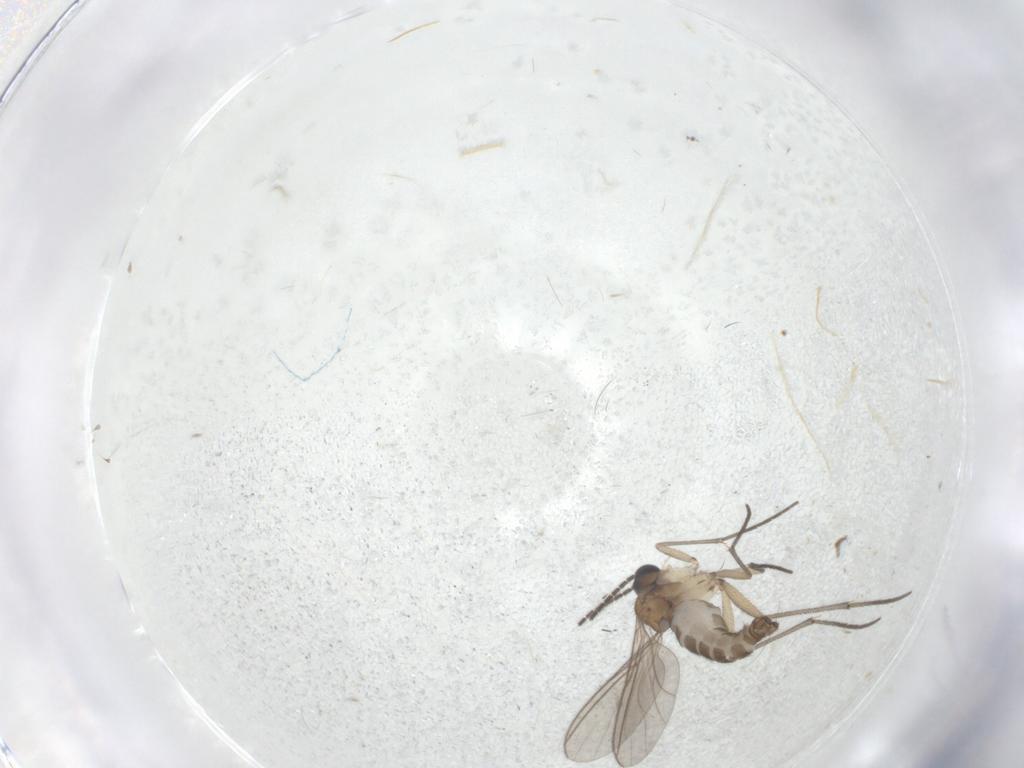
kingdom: Animalia
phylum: Arthropoda
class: Insecta
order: Diptera
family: Sciaridae
